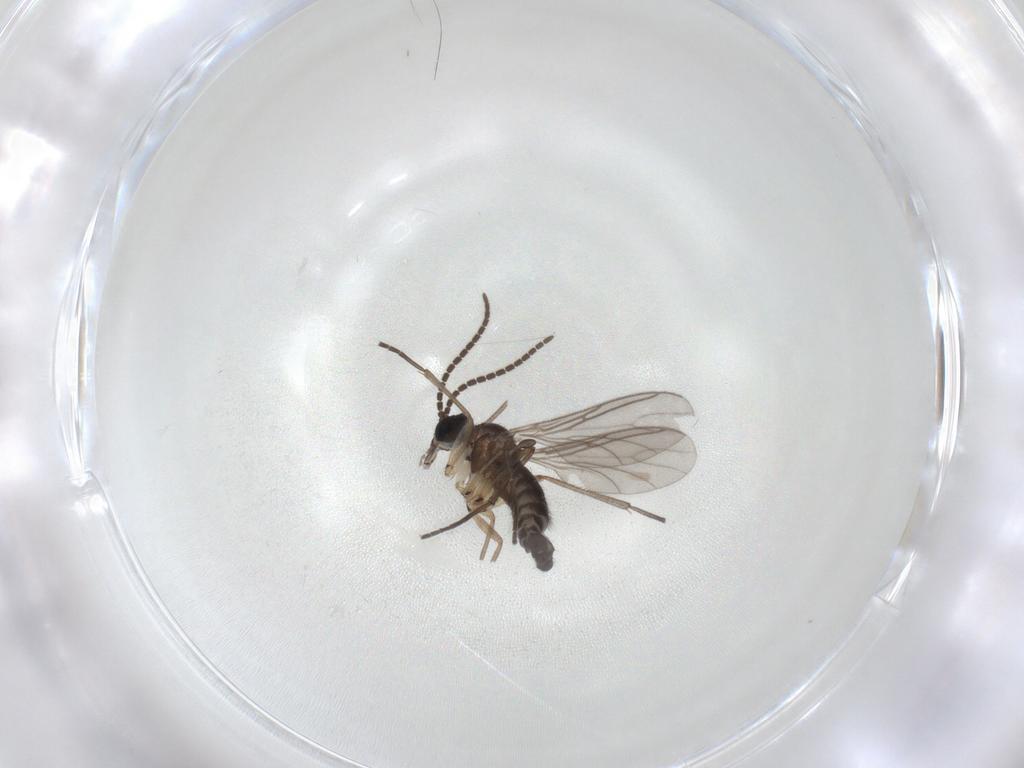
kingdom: Animalia
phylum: Arthropoda
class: Insecta
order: Diptera
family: Sciaridae
